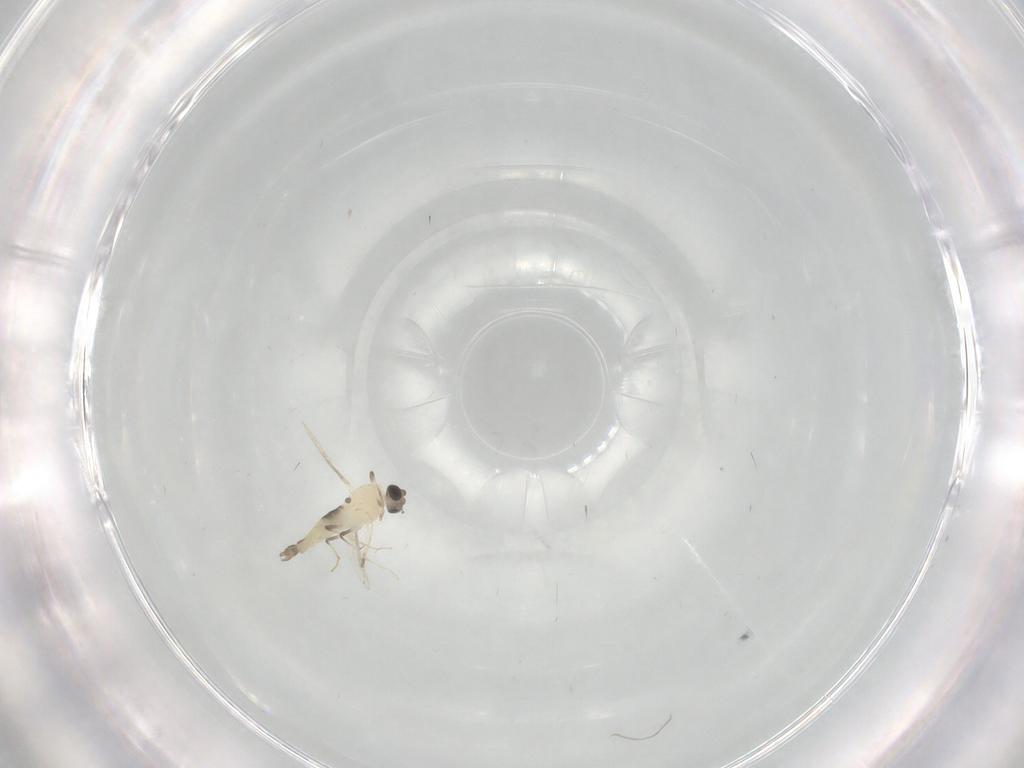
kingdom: Animalia
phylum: Arthropoda
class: Insecta
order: Diptera
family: Chironomidae
